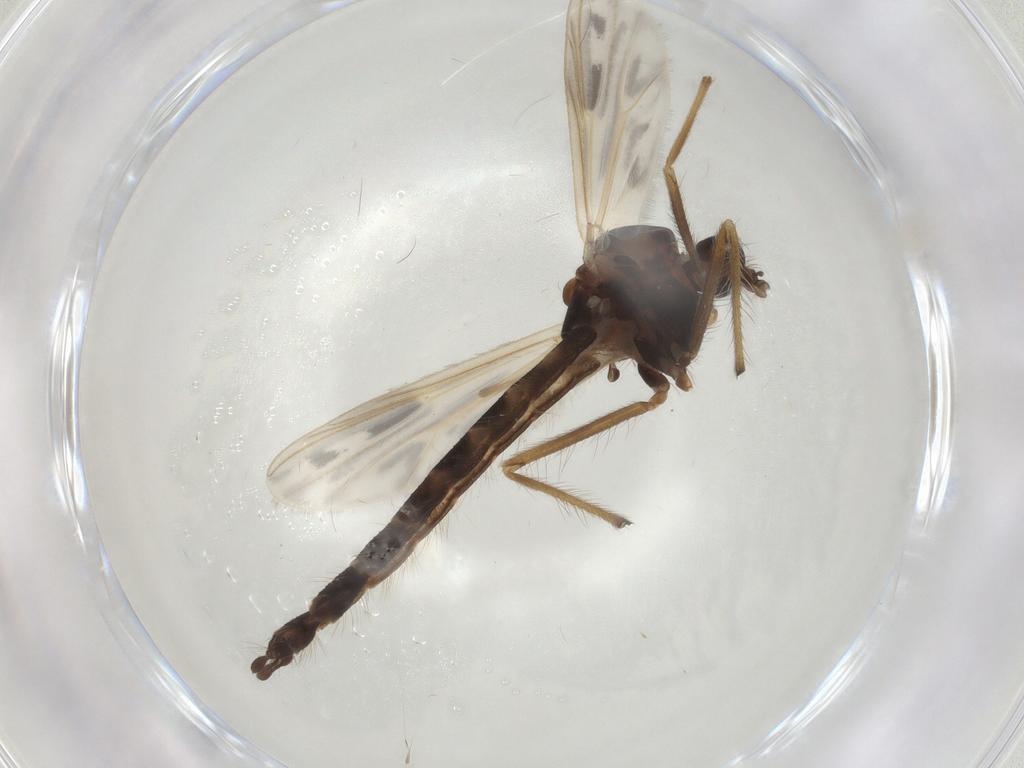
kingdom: Animalia
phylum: Arthropoda
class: Insecta
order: Diptera
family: Chironomidae
